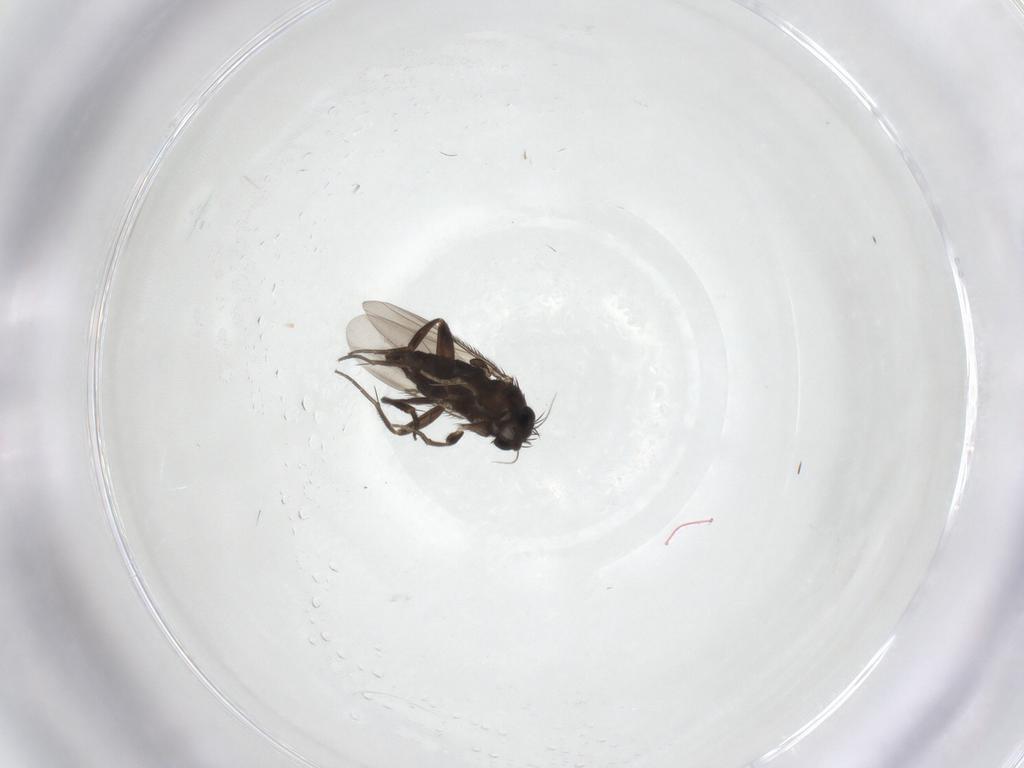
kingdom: Animalia
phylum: Arthropoda
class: Insecta
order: Diptera
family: Phoridae
